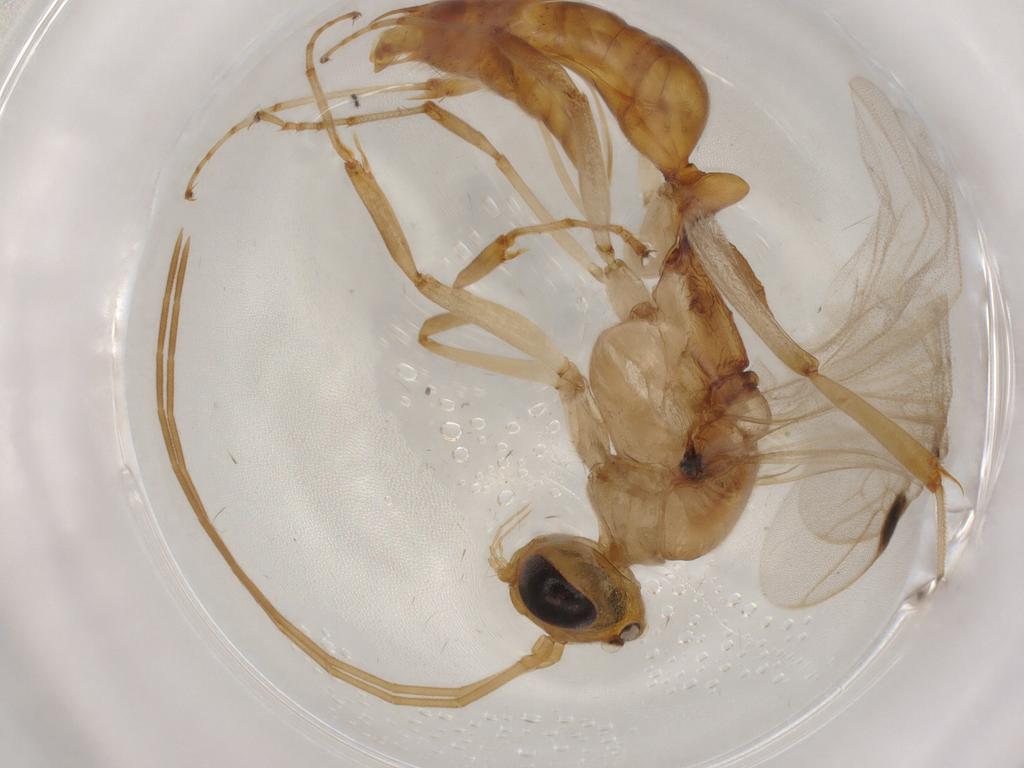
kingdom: Animalia
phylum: Arthropoda
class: Insecta
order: Hymenoptera
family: Formicidae
